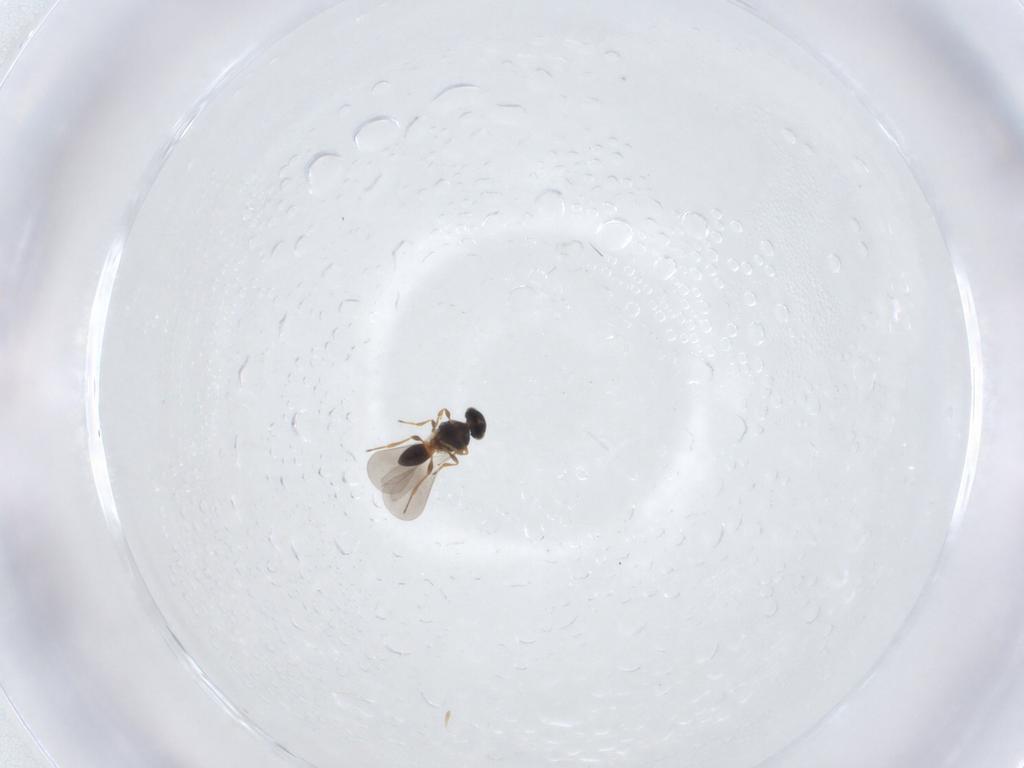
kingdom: Animalia
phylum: Arthropoda
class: Insecta
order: Hymenoptera
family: Platygastridae
